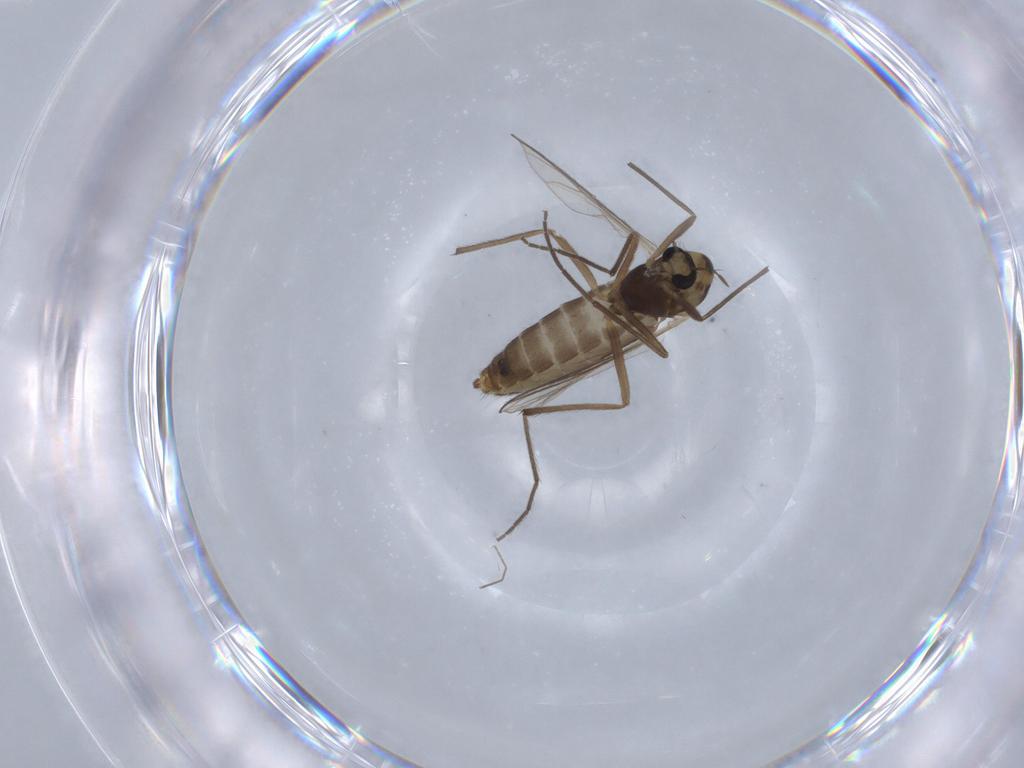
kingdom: Animalia
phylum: Arthropoda
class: Insecta
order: Diptera
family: Chironomidae
